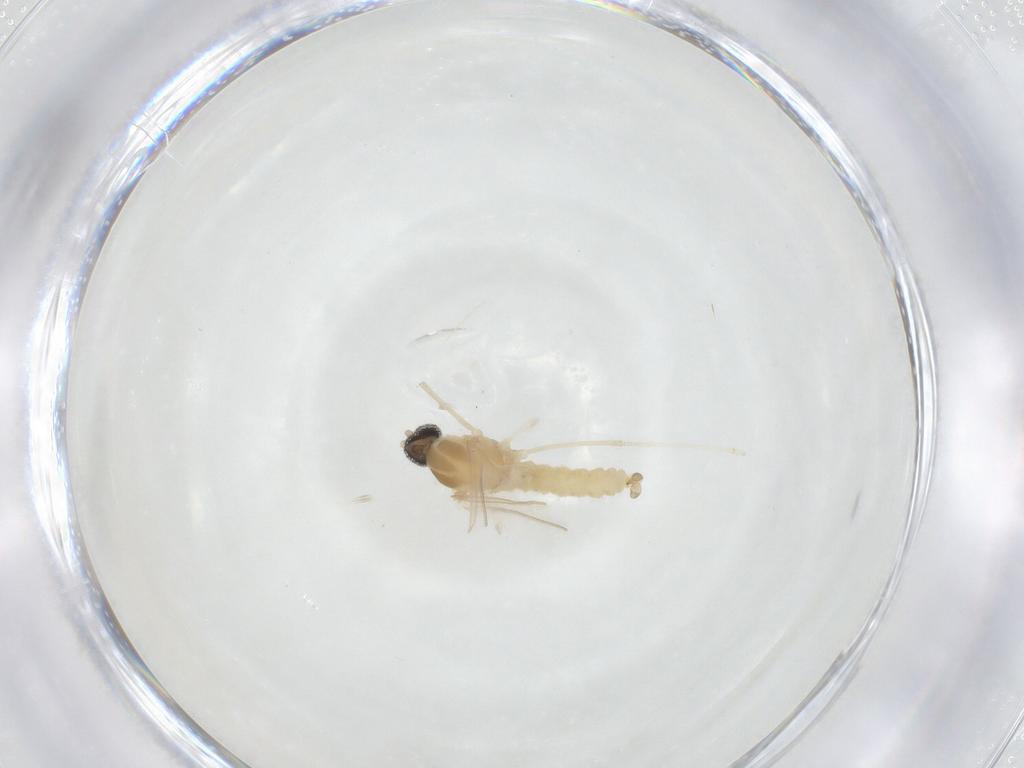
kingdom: Animalia
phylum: Arthropoda
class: Insecta
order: Diptera
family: Cecidomyiidae
